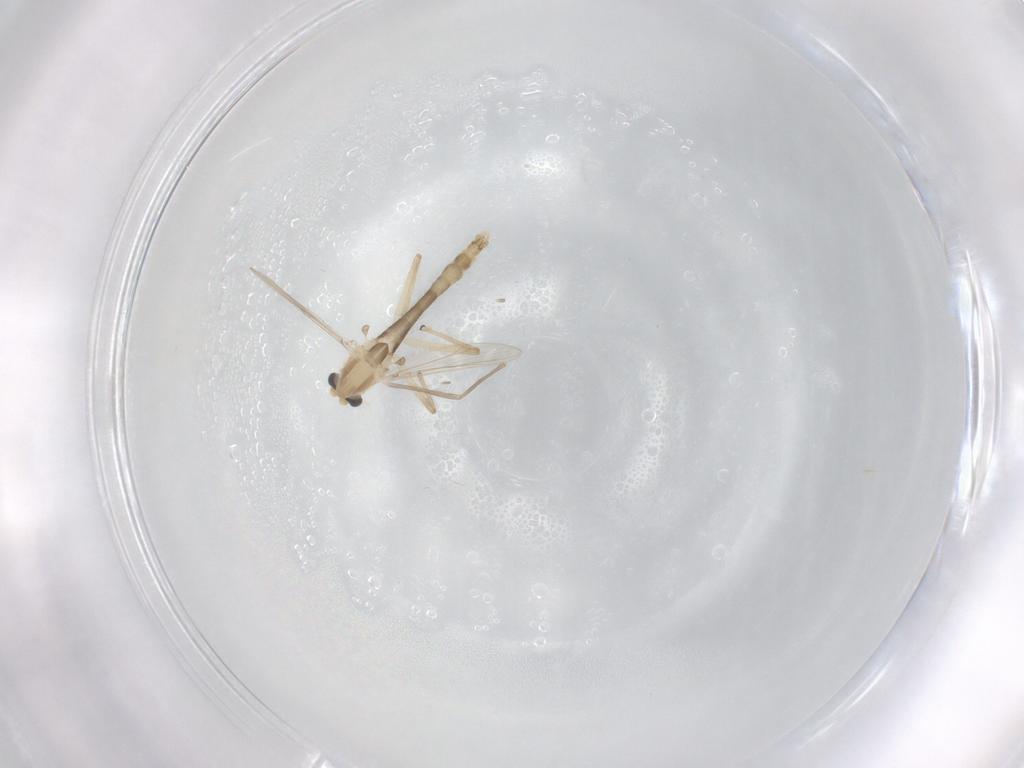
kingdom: Animalia
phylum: Arthropoda
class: Insecta
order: Diptera
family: Chironomidae
